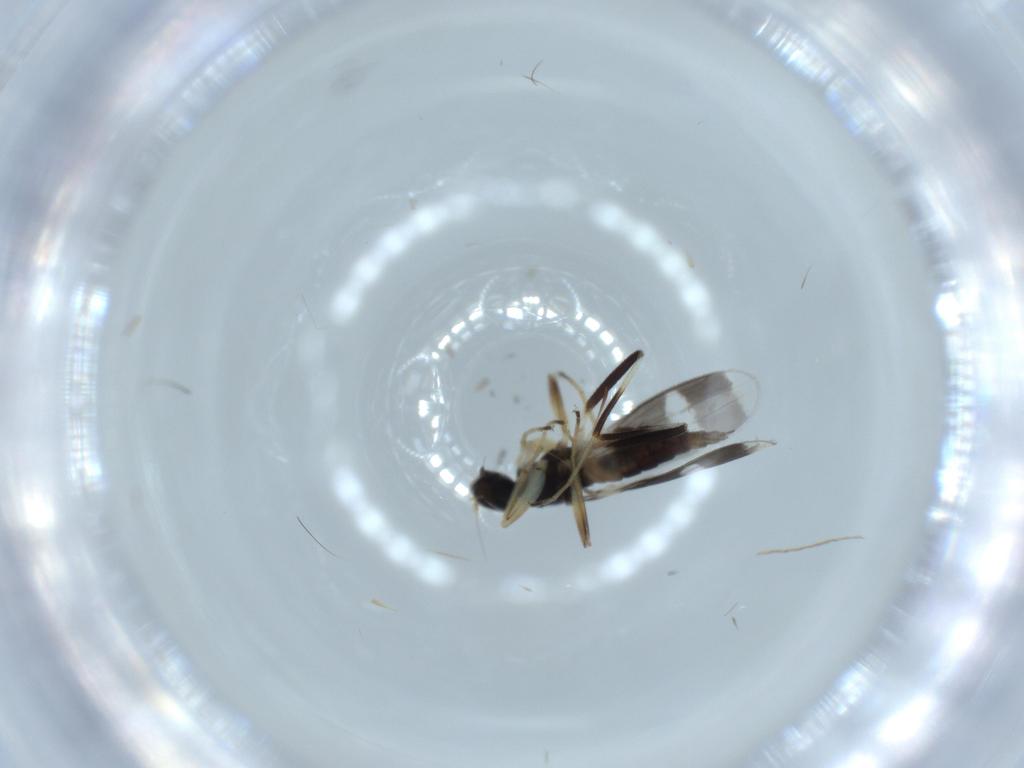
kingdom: Animalia
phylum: Arthropoda
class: Insecta
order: Diptera
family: Hybotidae
